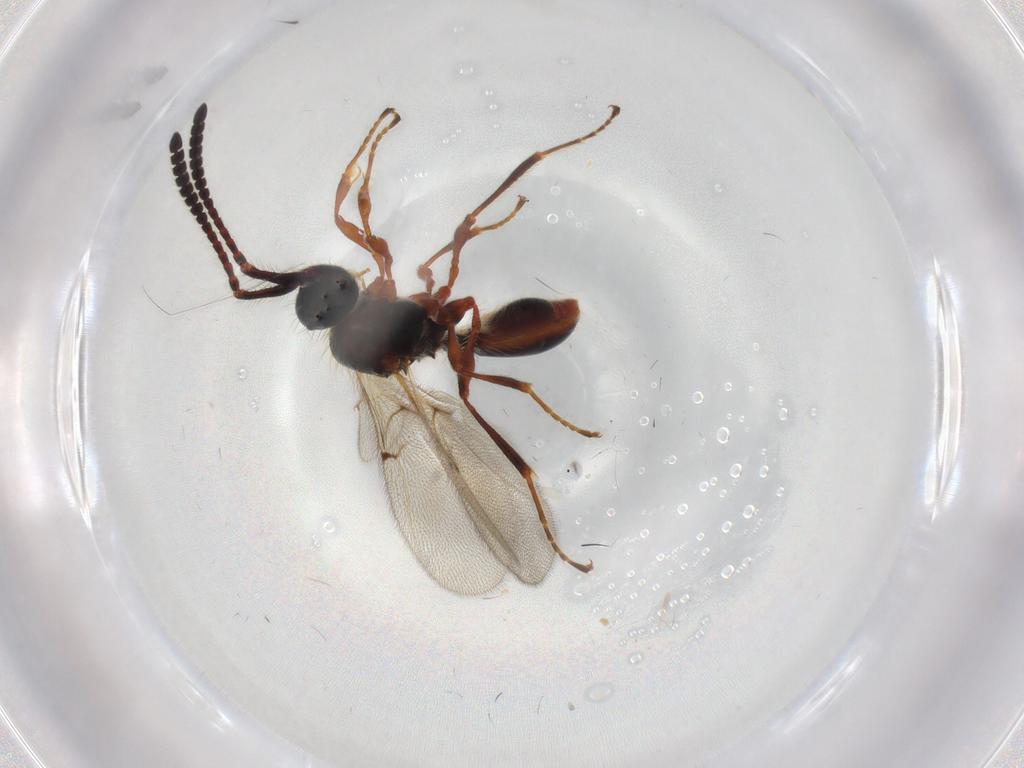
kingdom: Animalia
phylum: Arthropoda
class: Insecta
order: Hymenoptera
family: Diapriidae
